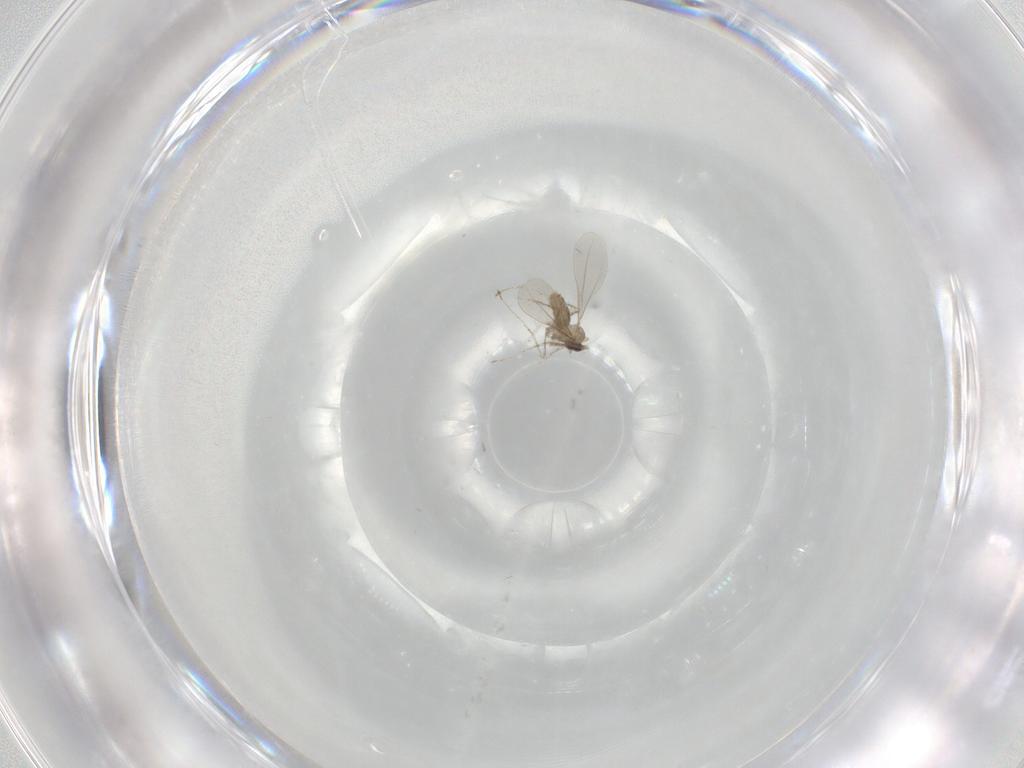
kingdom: Animalia
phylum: Arthropoda
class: Insecta
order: Diptera
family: Cecidomyiidae
